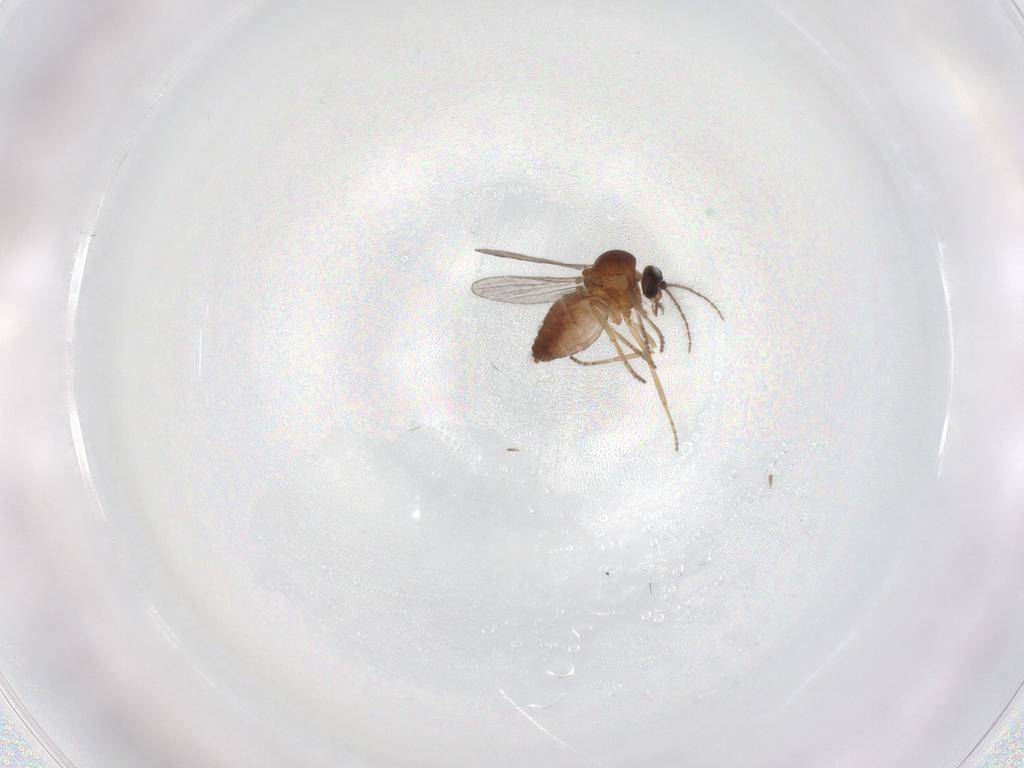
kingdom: Animalia
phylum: Arthropoda
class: Insecta
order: Diptera
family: Ceratopogonidae
